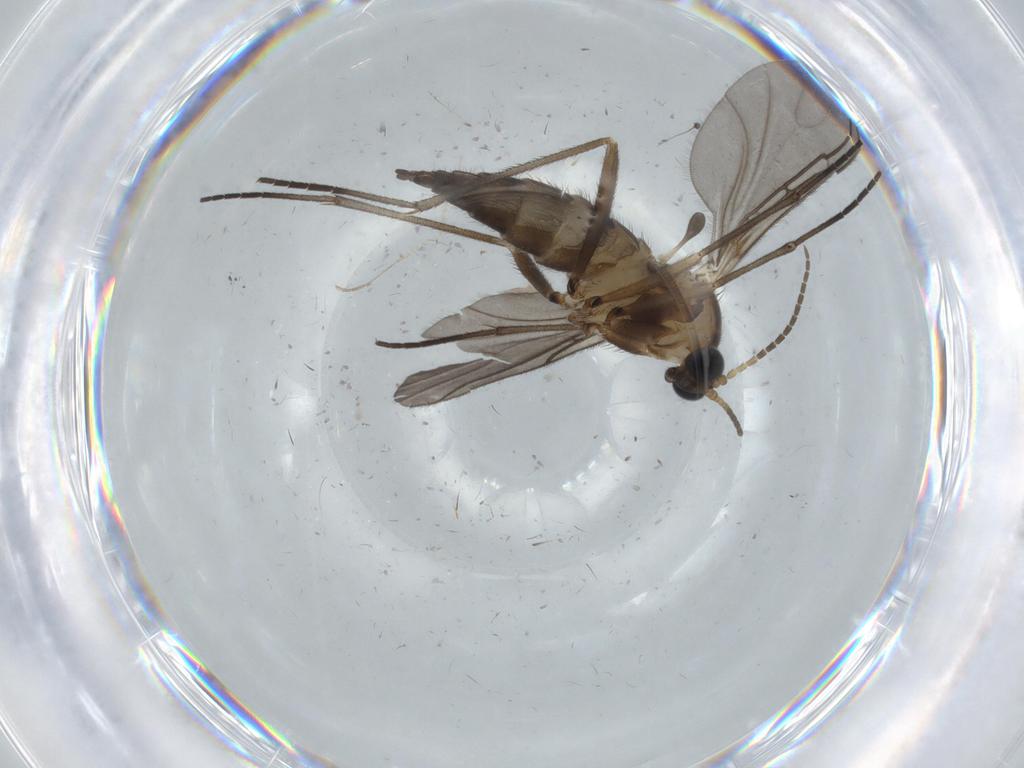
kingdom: Animalia
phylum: Arthropoda
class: Insecta
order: Diptera
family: Sciaridae
